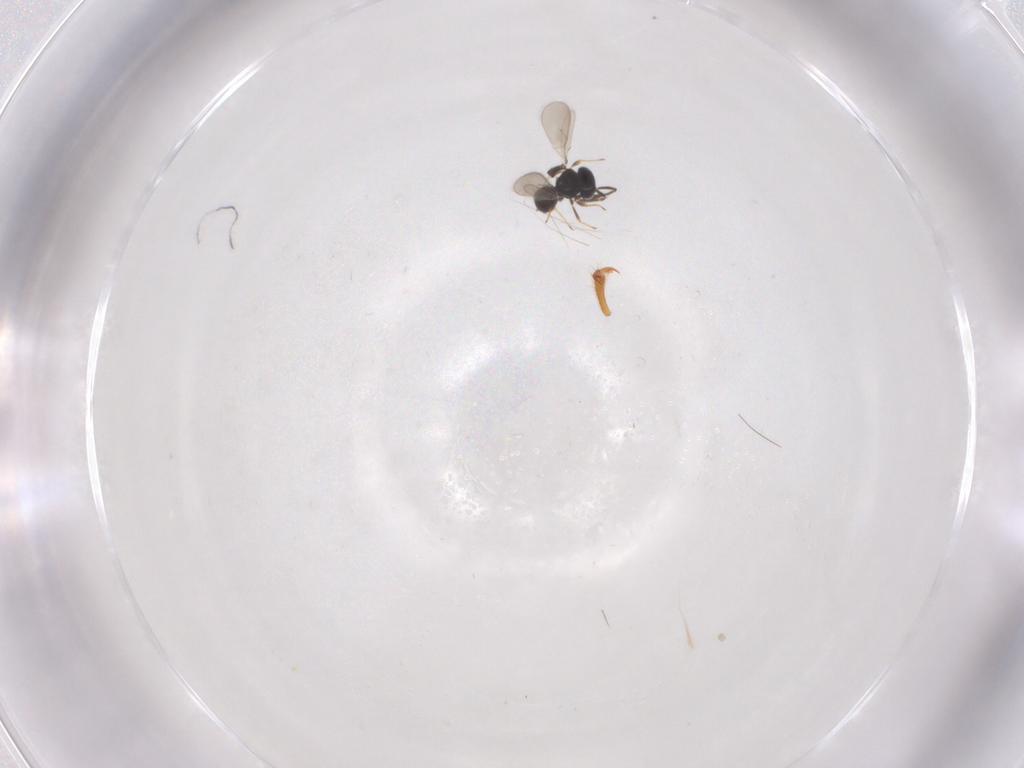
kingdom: Animalia
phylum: Arthropoda
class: Insecta
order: Hymenoptera
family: Scelionidae
